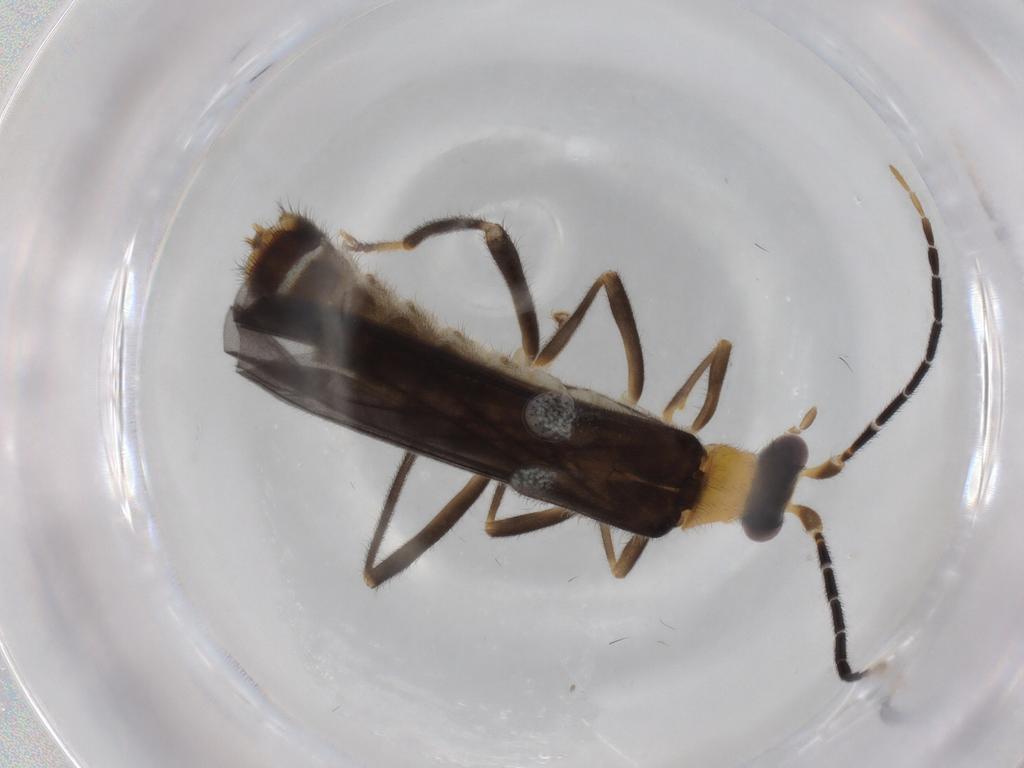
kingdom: Animalia
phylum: Arthropoda
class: Insecta
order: Coleoptera
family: Cantharidae
